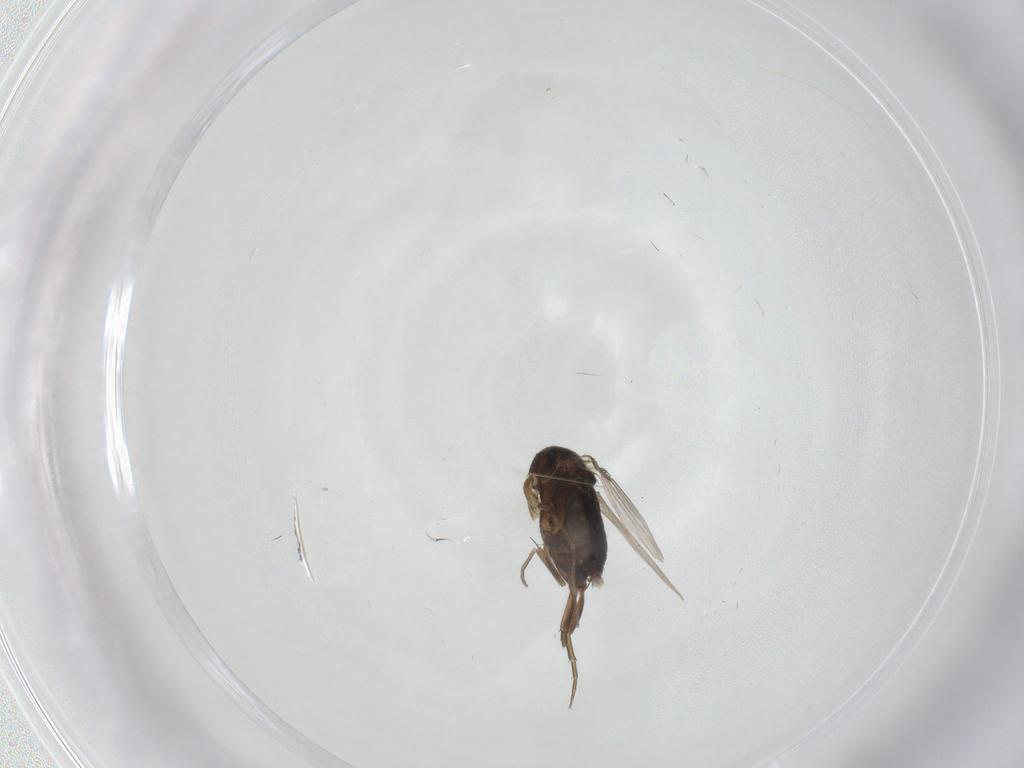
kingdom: Animalia
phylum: Arthropoda
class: Insecta
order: Diptera
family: Phoridae
